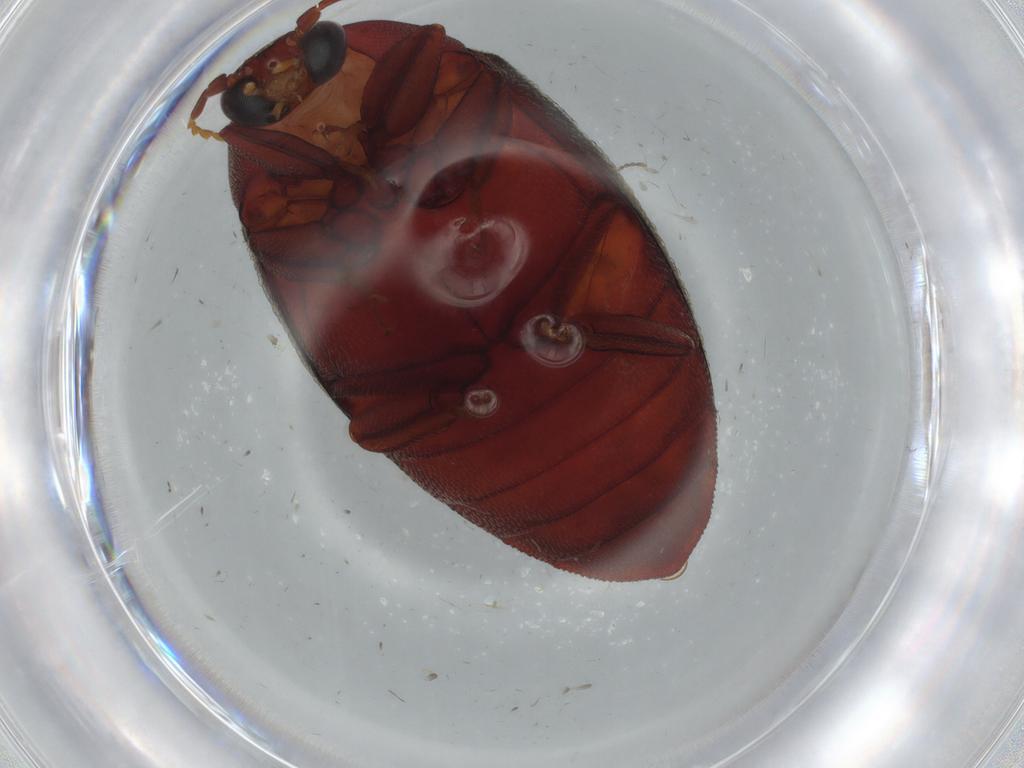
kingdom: Animalia
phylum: Arthropoda
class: Insecta
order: Coleoptera
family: Chelonariidae
